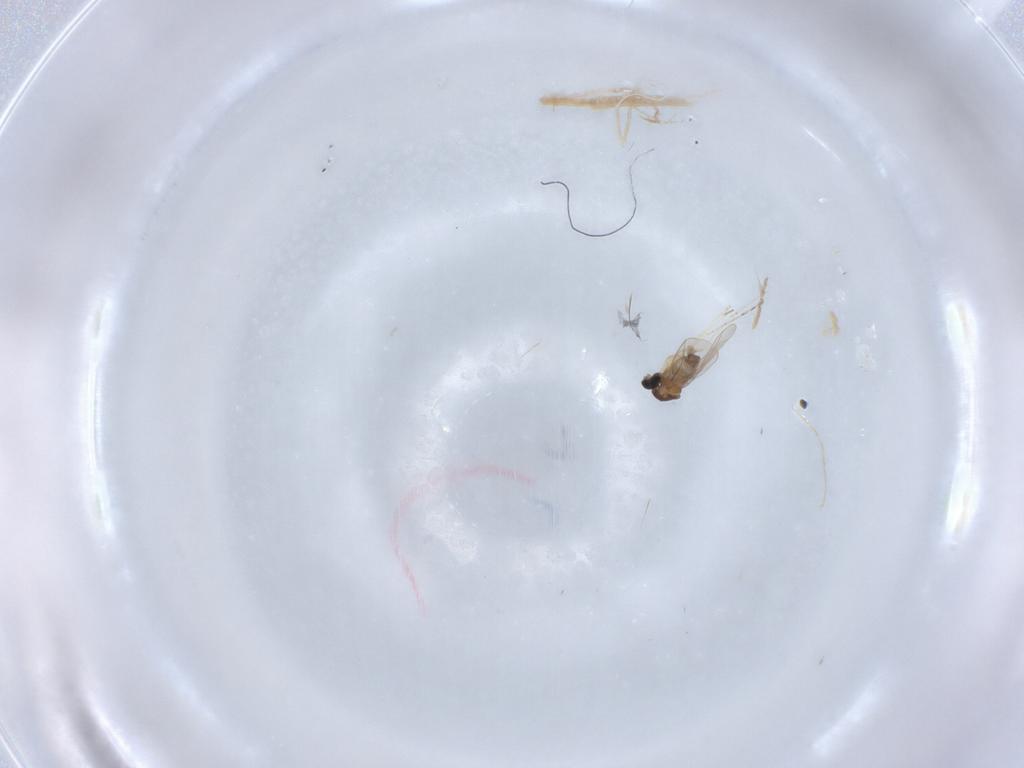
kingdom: Animalia
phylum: Arthropoda
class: Insecta
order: Diptera
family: Cecidomyiidae
